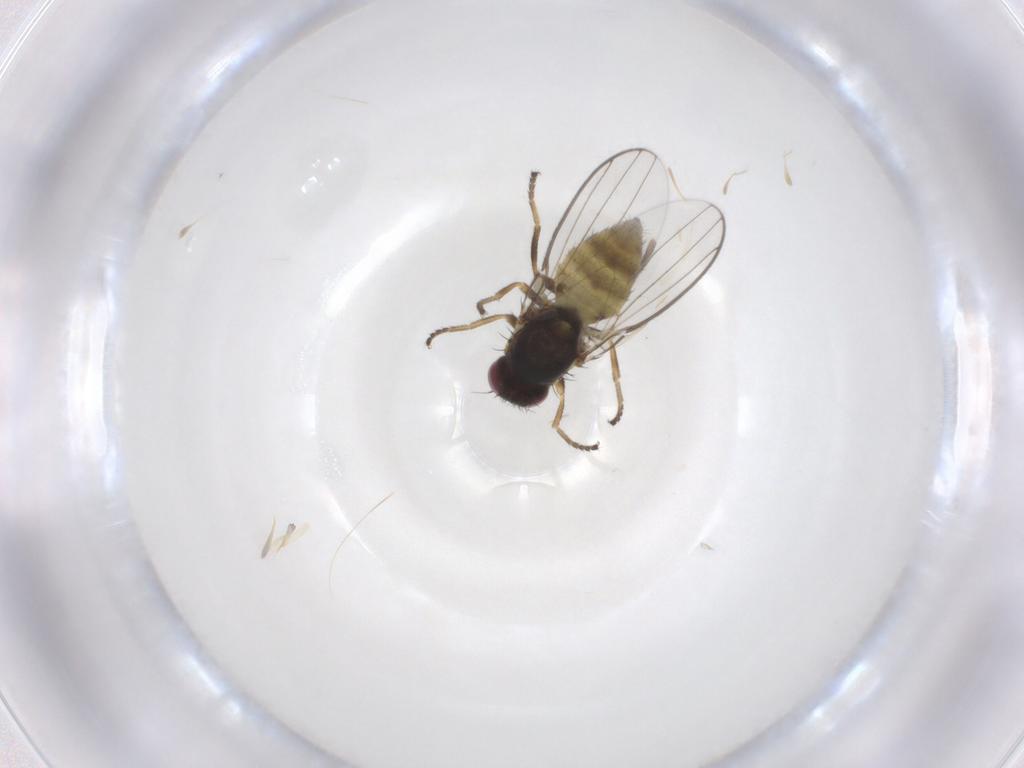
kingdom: Animalia
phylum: Arthropoda
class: Insecta
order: Diptera
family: Chloropidae
